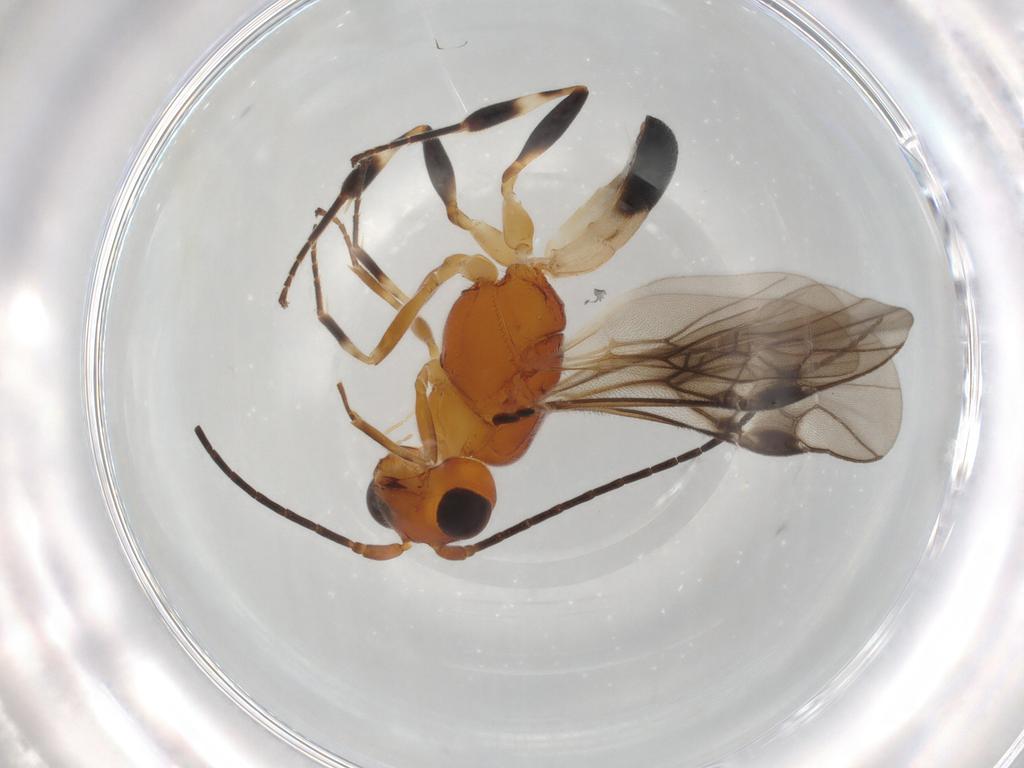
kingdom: Animalia
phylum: Arthropoda
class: Insecta
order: Hymenoptera
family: Braconidae
